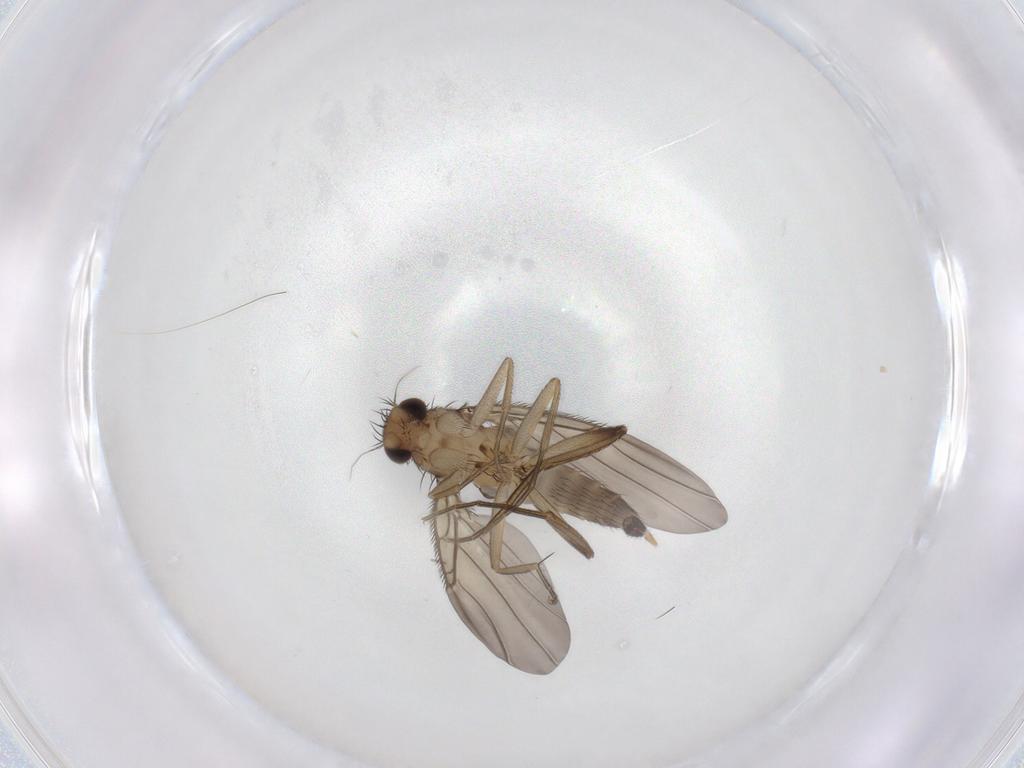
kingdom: Animalia
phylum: Arthropoda
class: Insecta
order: Diptera
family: Phoridae
